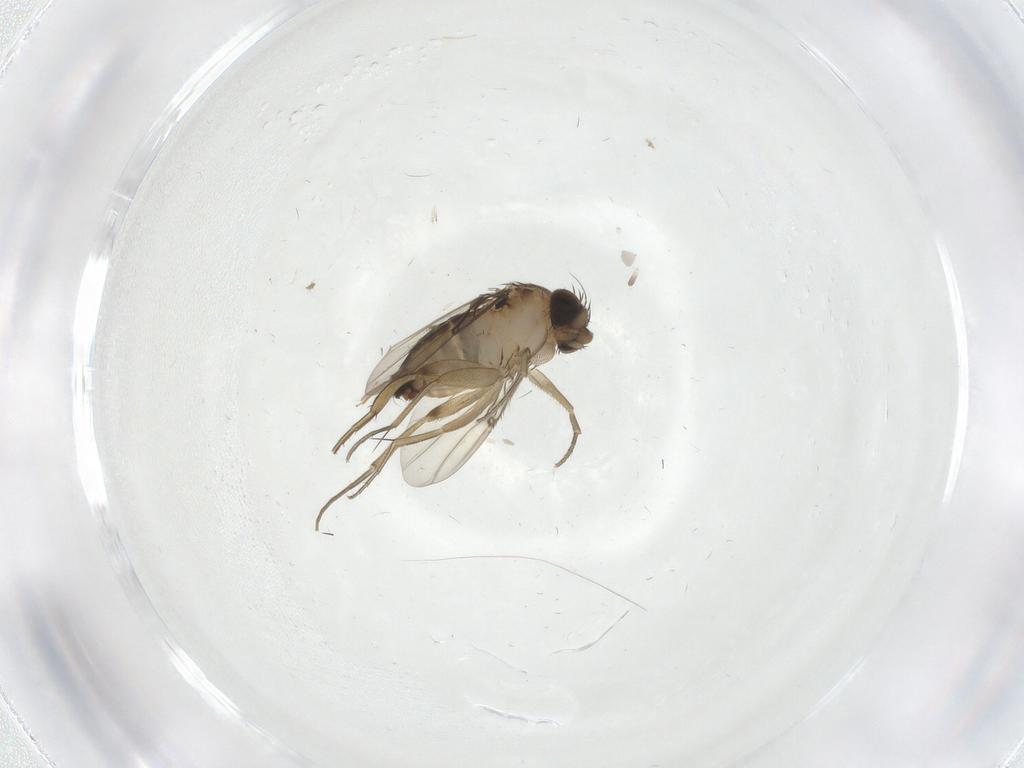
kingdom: Animalia
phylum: Arthropoda
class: Insecta
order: Diptera
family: Phoridae
